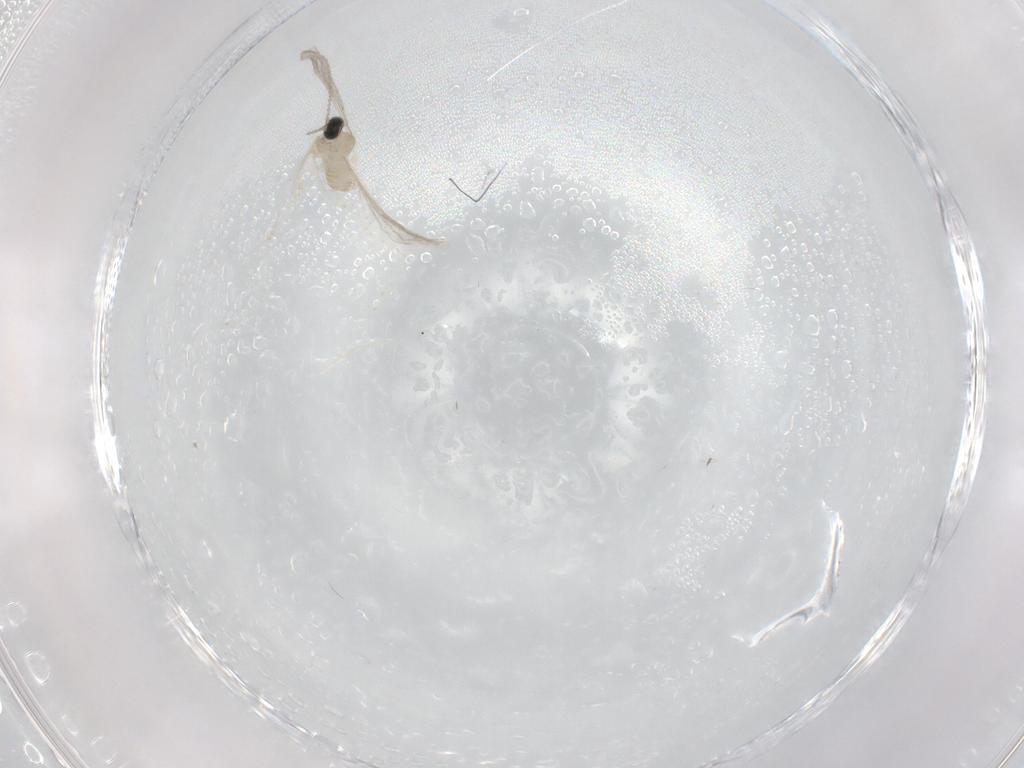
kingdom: Animalia
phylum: Arthropoda
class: Insecta
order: Diptera
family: Cecidomyiidae
